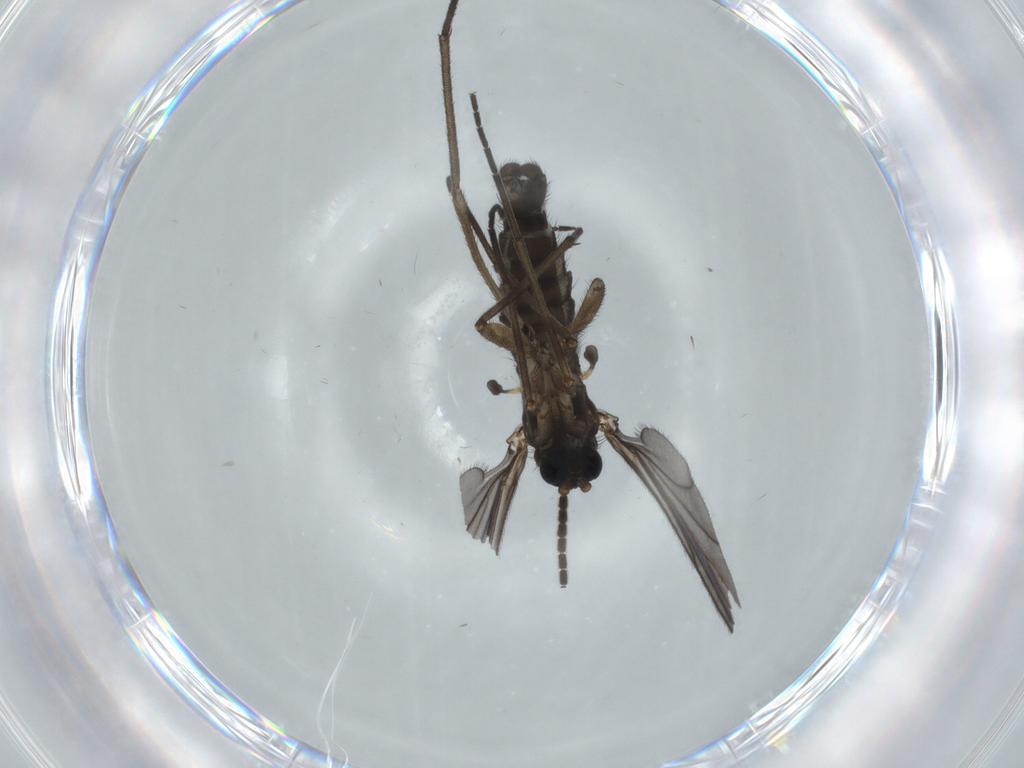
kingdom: Animalia
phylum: Arthropoda
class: Insecta
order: Diptera
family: Sciaridae
